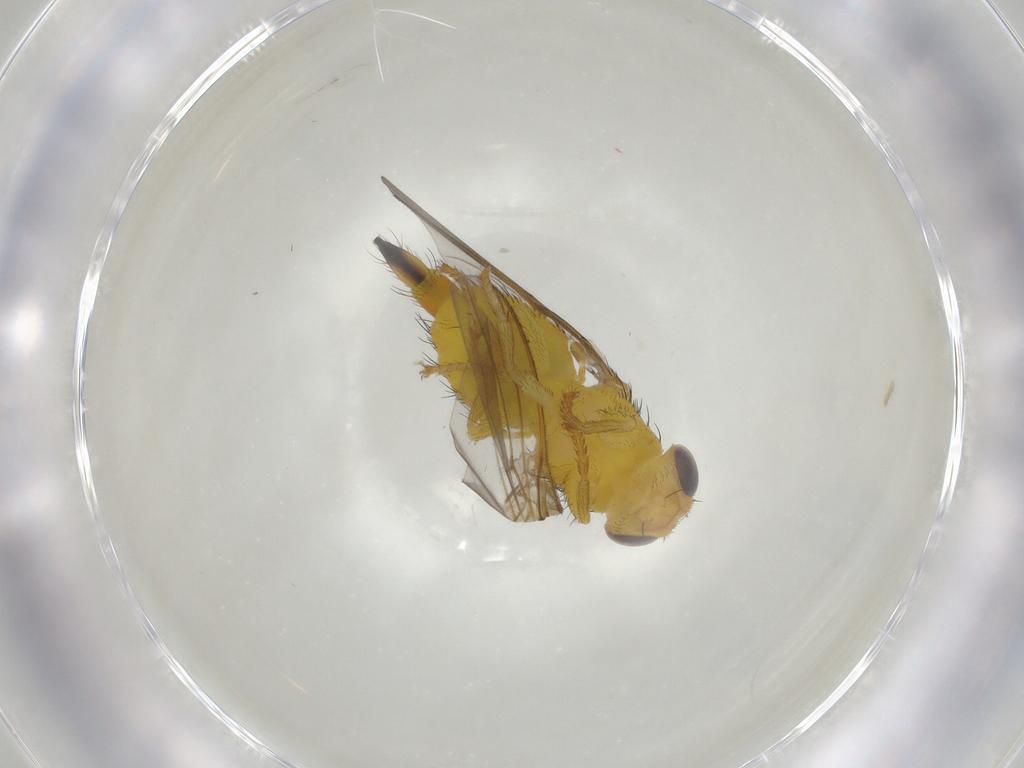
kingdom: Animalia
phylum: Arthropoda
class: Insecta
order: Diptera
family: Fergusoninidae
